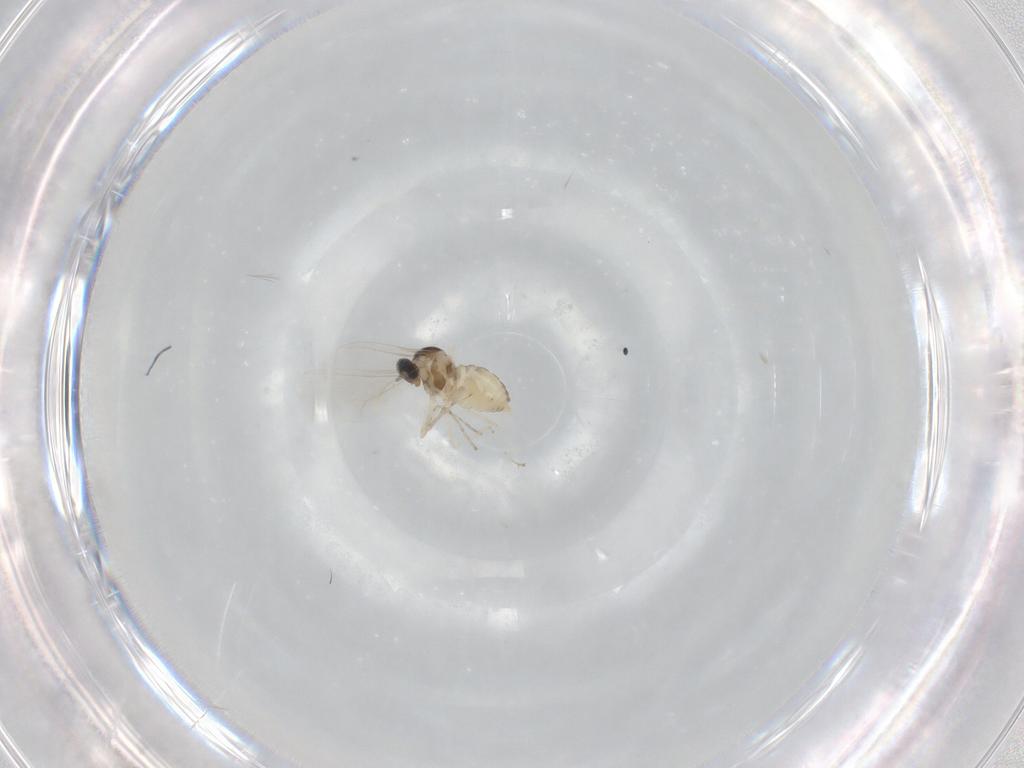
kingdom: Animalia
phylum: Arthropoda
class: Insecta
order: Diptera
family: Cecidomyiidae
